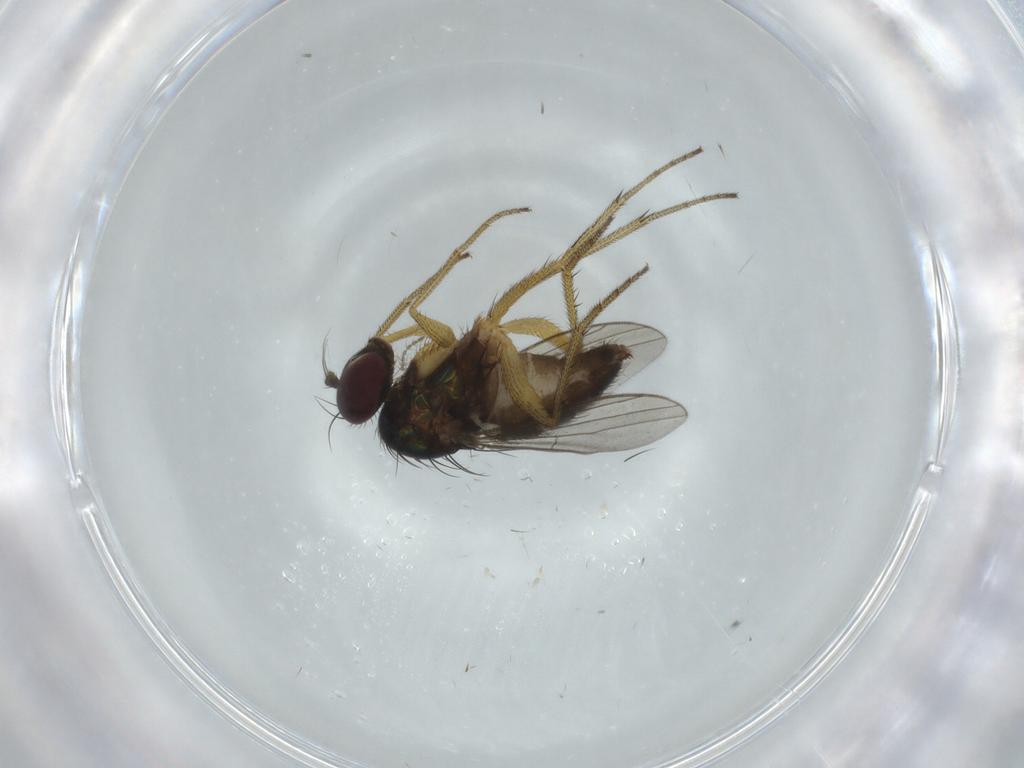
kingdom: Animalia
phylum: Arthropoda
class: Insecta
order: Diptera
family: Dolichopodidae
